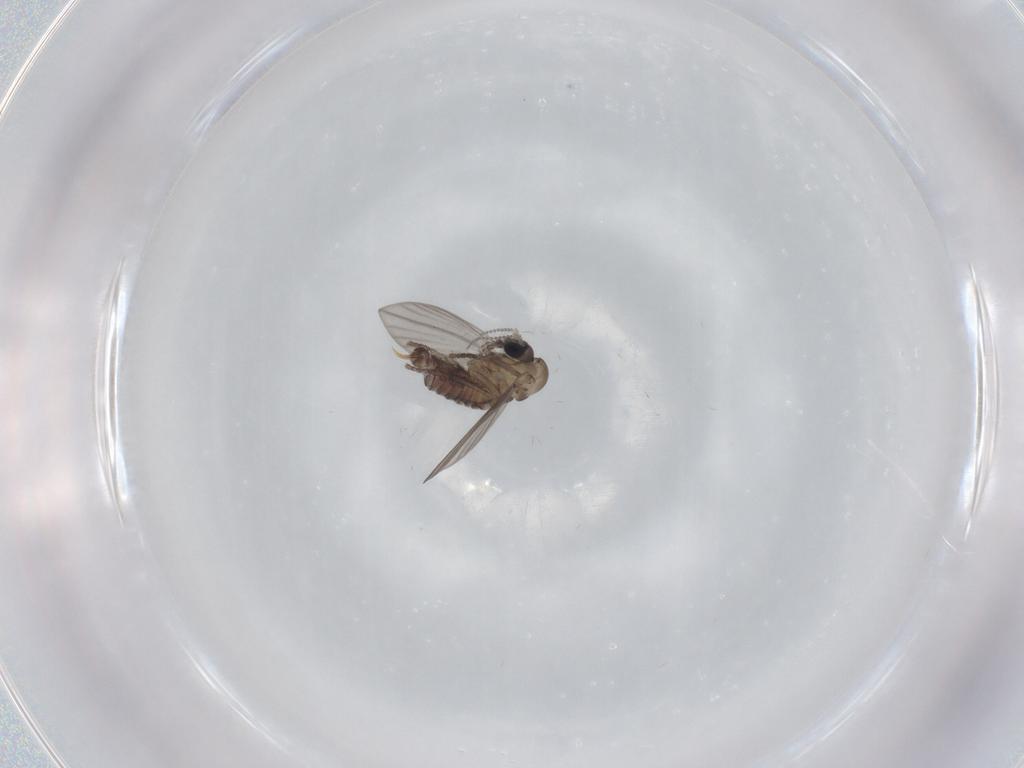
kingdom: Animalia
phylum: Arthropoda
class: Insecta
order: Diptera
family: Psychodidae
